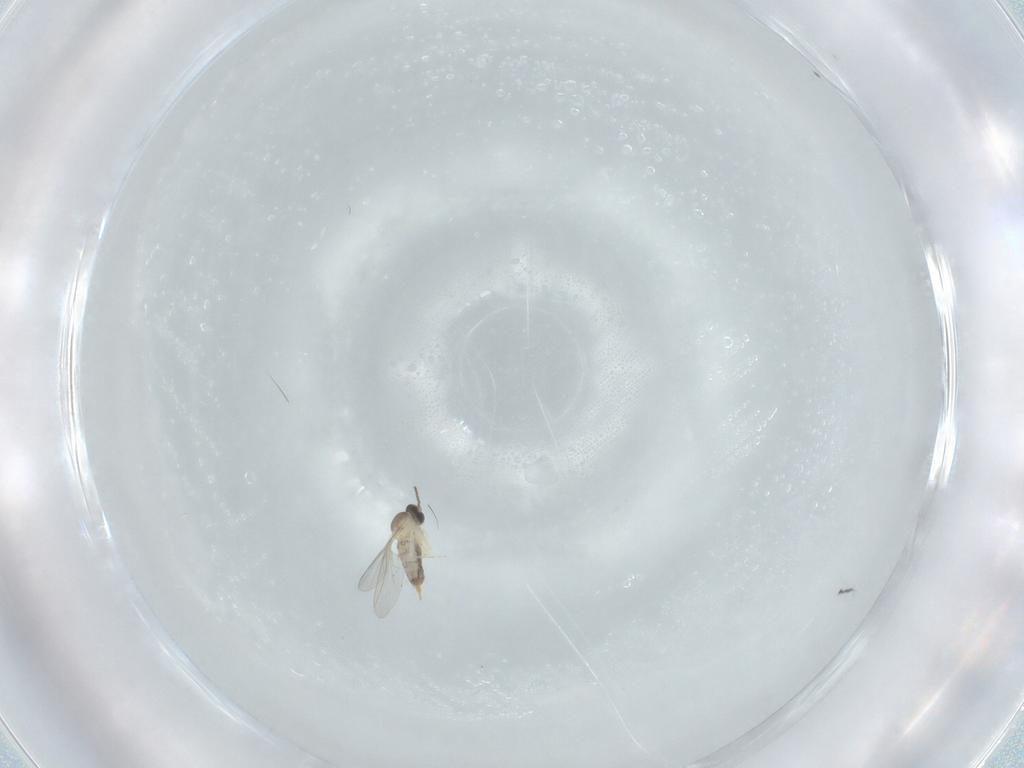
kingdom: Animalia
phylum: Arthropoda
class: Insecta
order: Diptera
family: Cecidomyiidae
